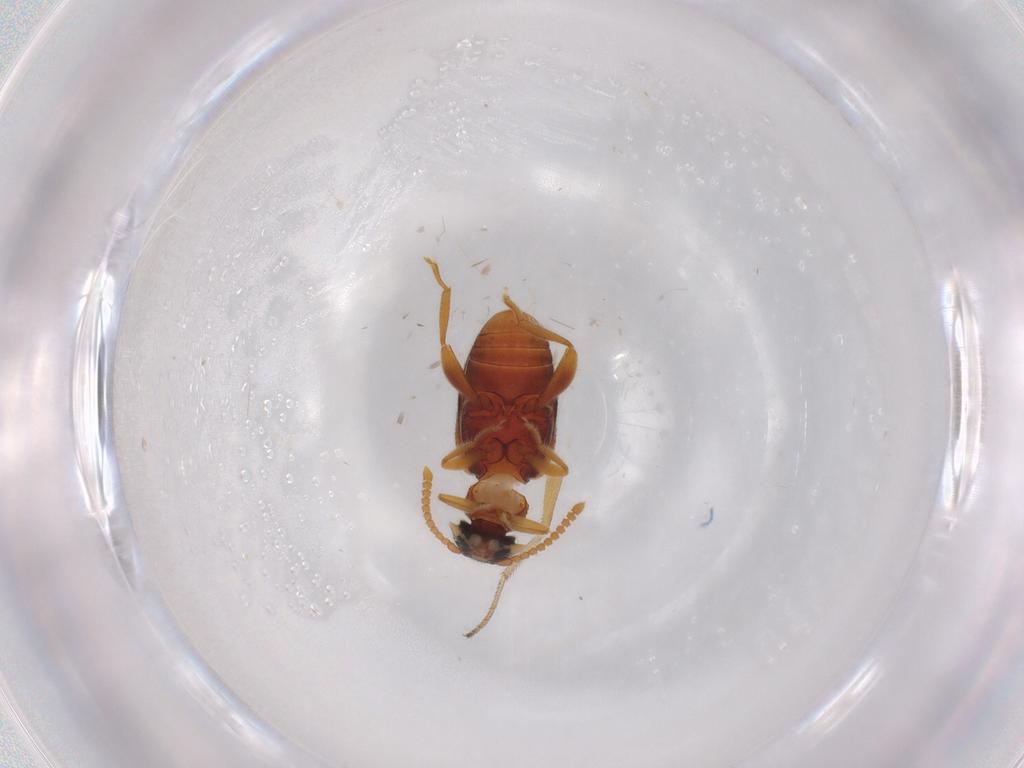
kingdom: Animalia
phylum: Arthropoda
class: Insecta
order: Coleoptera
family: Aderidae
